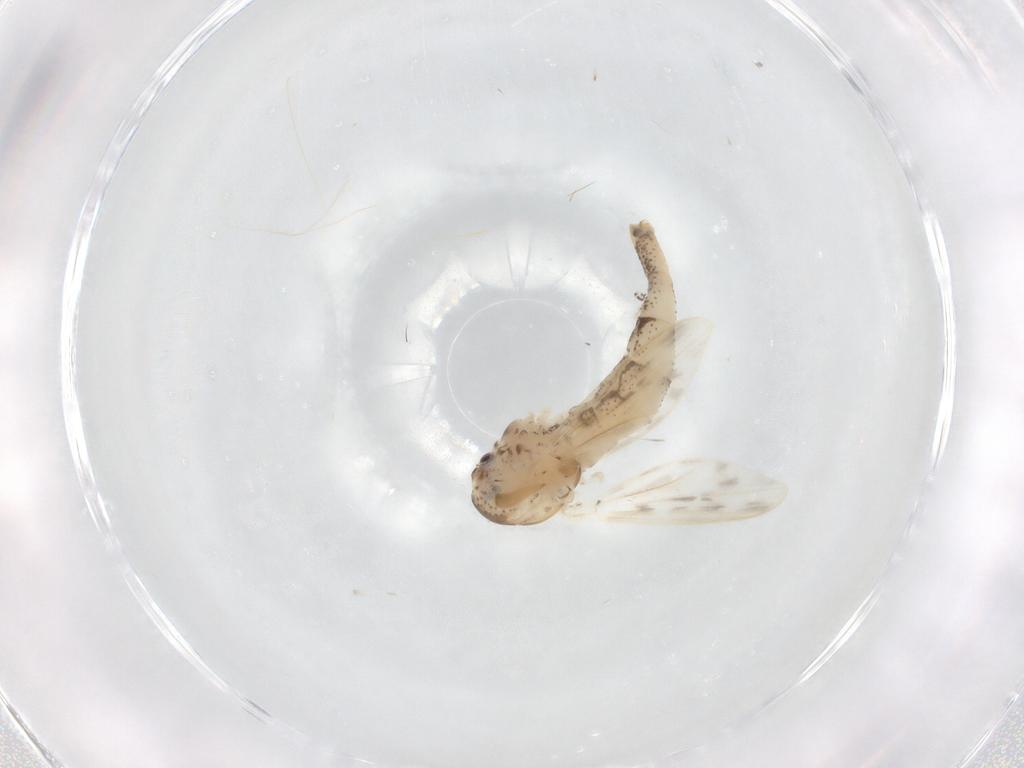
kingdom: Animalia
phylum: Arthropoda
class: Insecta
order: Diptera
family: Chaoboridae
